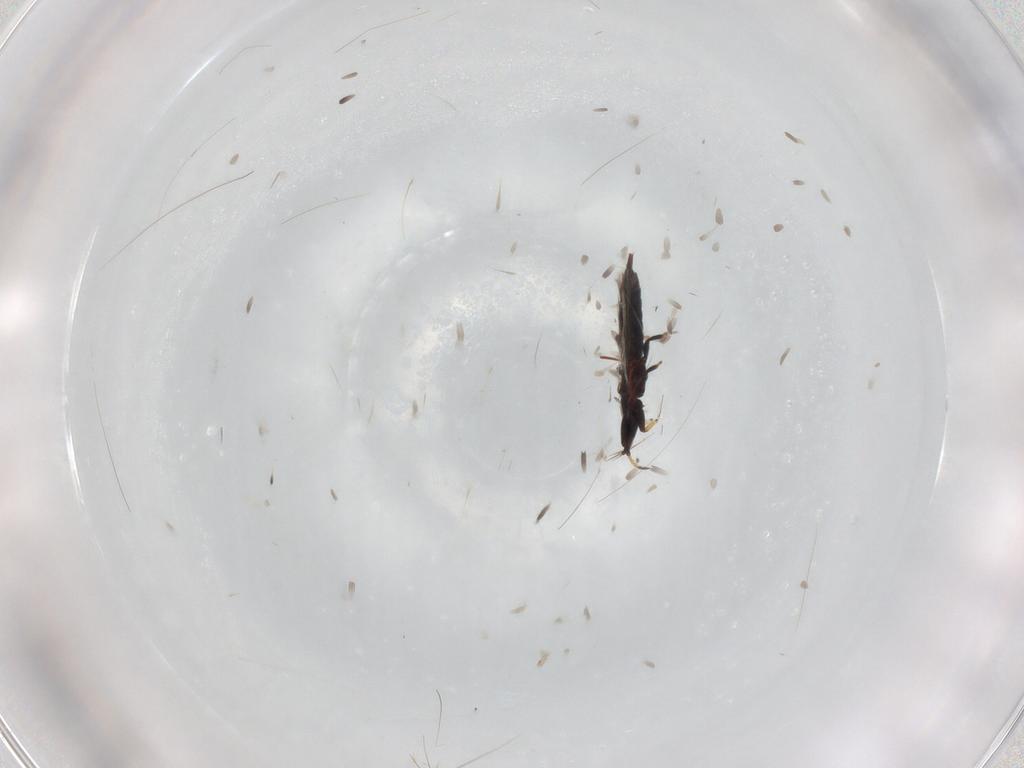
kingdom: Animalia
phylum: Arthropoda
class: Insecta
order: Thysanoptera
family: Phlaeothripidae
